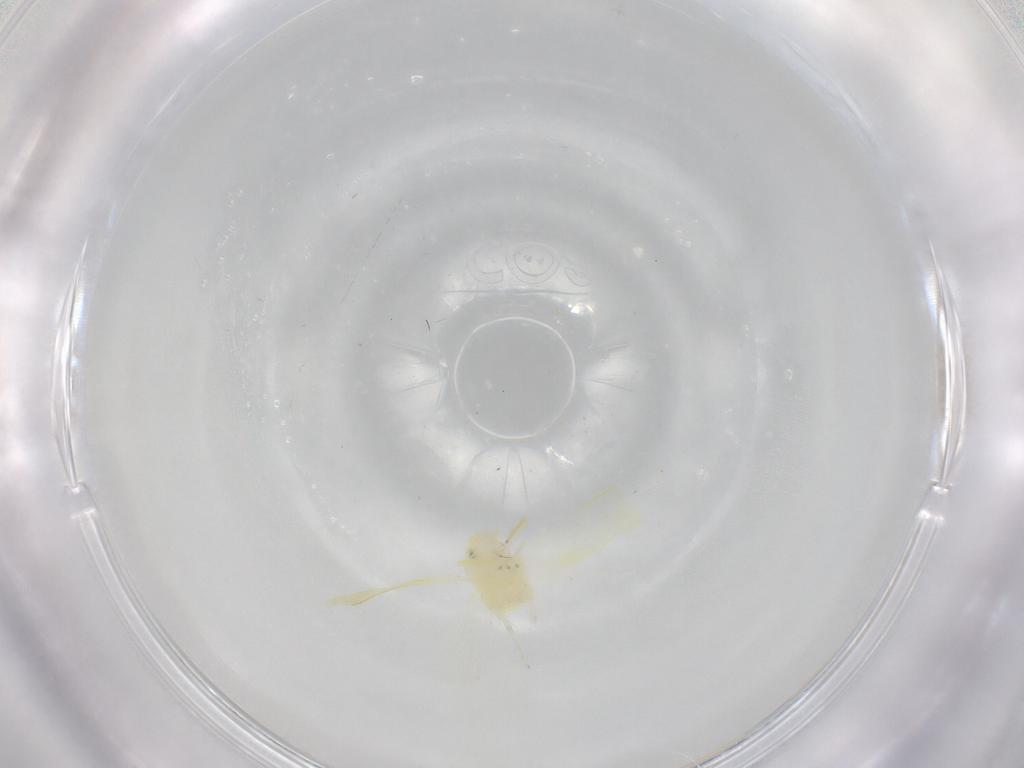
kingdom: Animalia
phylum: Arthropoda
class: Insecta
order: Hemiptera
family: Cicadellidae
